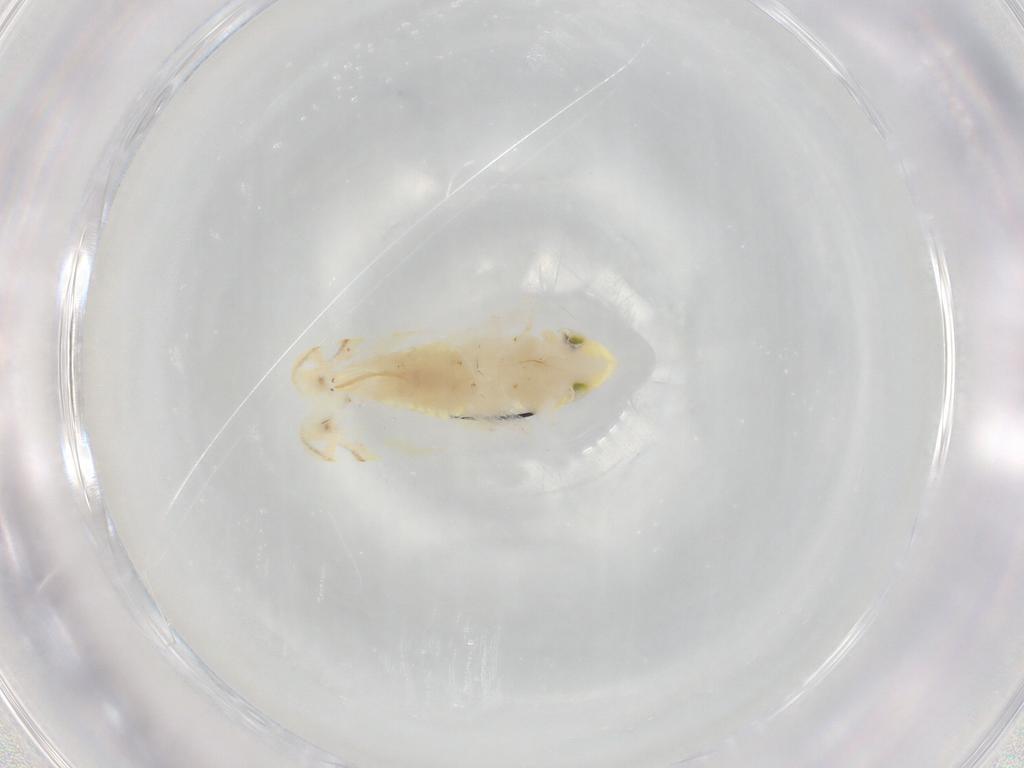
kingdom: Animalia
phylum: Arthropoda
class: Insecta
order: Hemiptera
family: Cicadellidae
